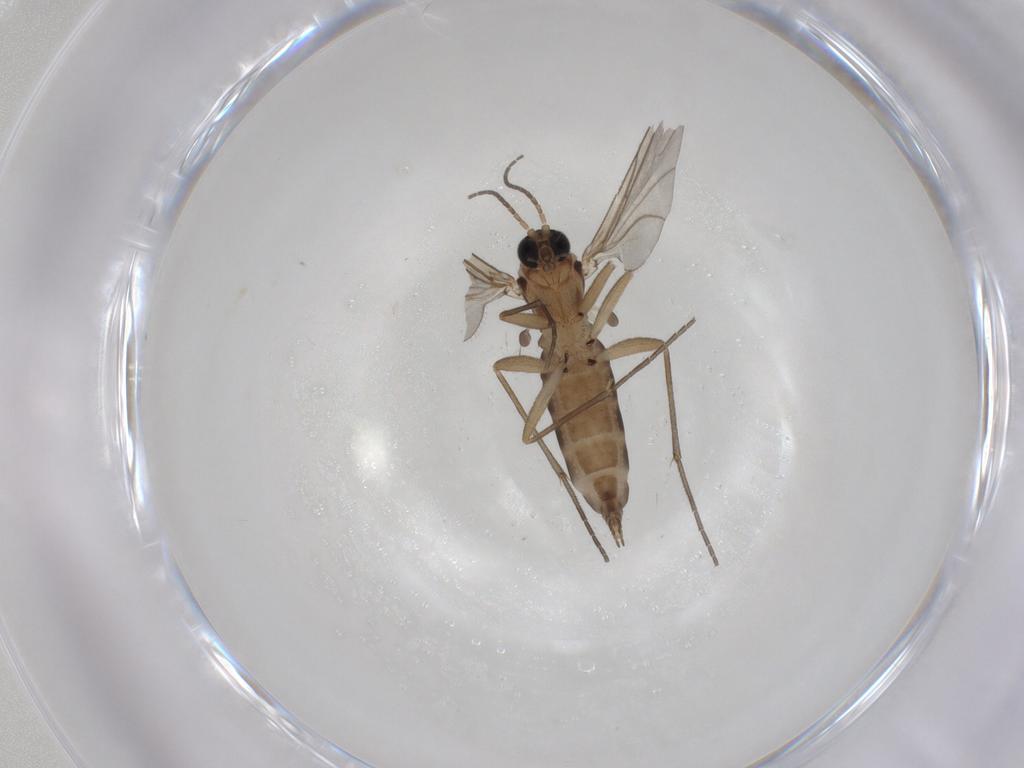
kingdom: Animalia
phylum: Arthropoda
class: Insecta
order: Diptera
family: Sciaridae
